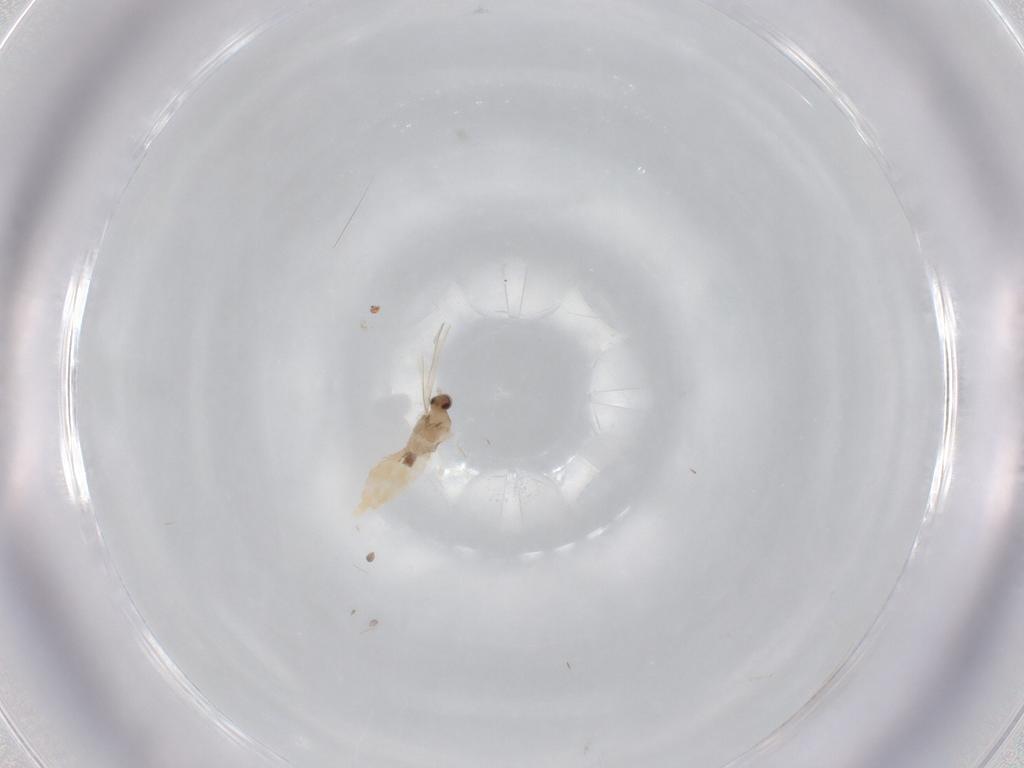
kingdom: Animalia
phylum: Arthropoda
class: Insecta
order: Diptera
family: Cecidomyiidae
